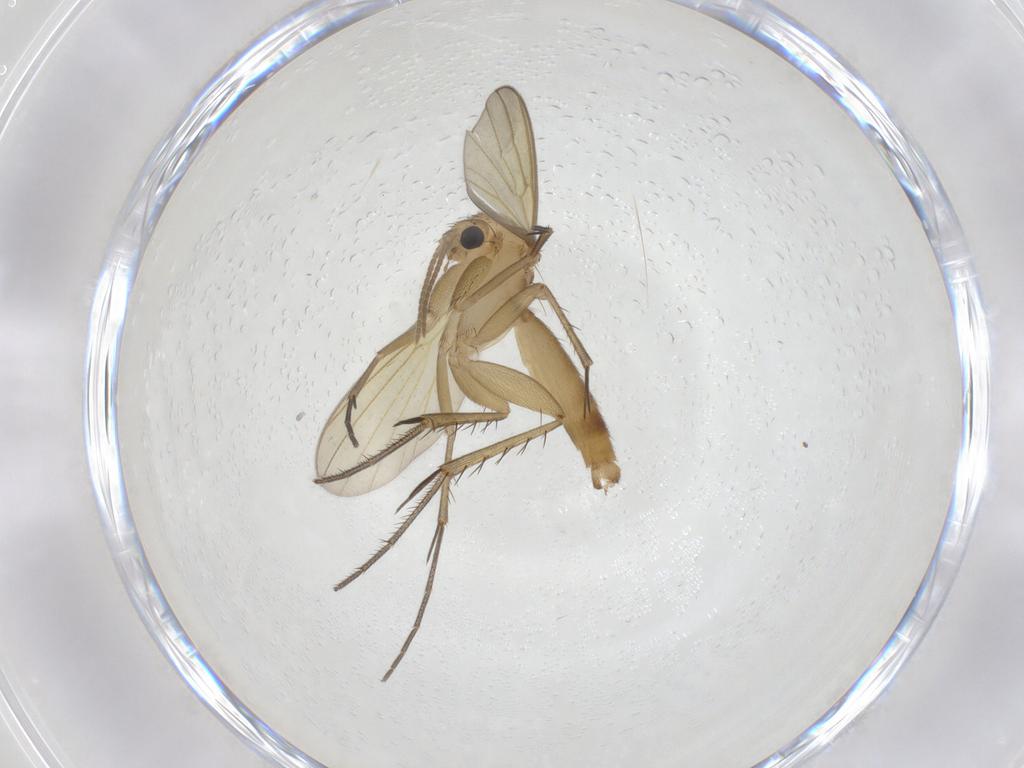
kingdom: Animalia
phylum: Arthropoda
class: Insecta
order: Diptera
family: Mycetophilidae
